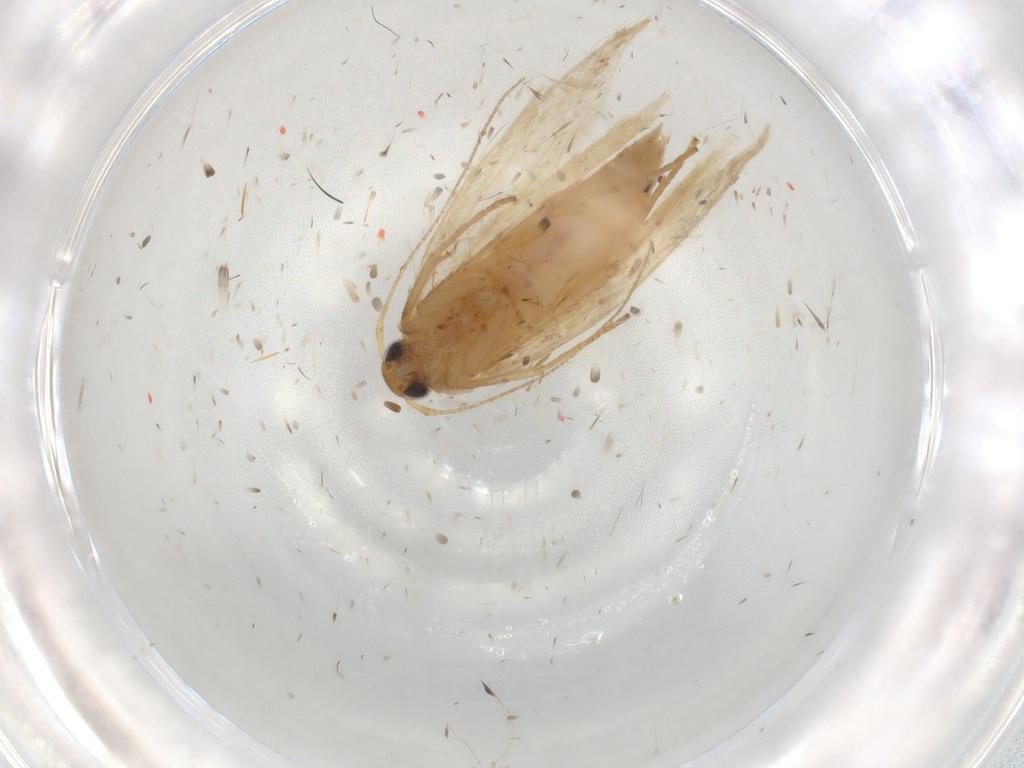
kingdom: Animalia
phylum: Arthropoda
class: Insecta
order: Lepidoptera
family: Gelechiidae
